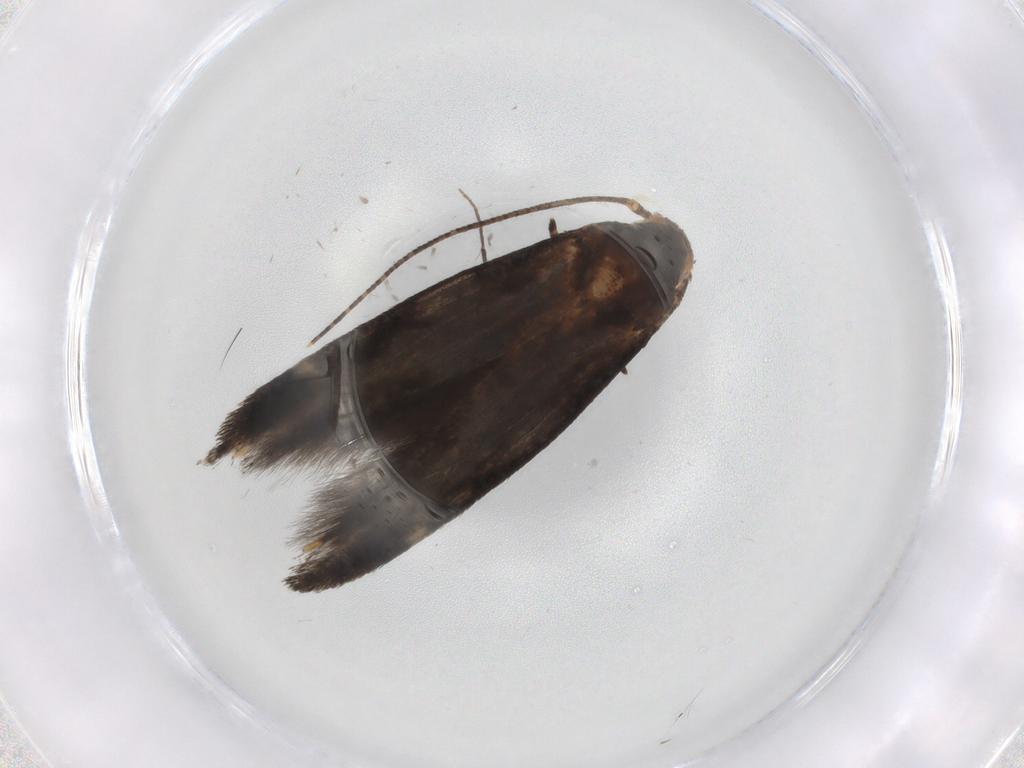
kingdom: Animalia
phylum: Arthropoda
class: Insecta
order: Lepidoptera
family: Momphidae
